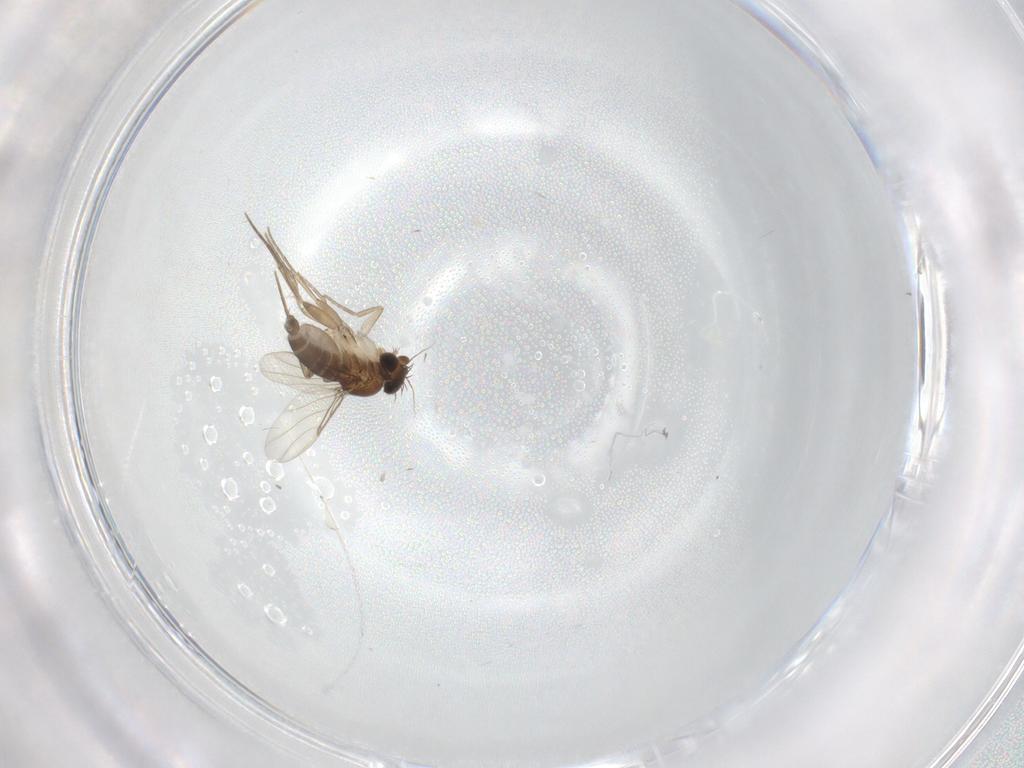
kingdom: Animalia
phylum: Arthropoda
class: Insecta
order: Diptera
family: Phoridae
